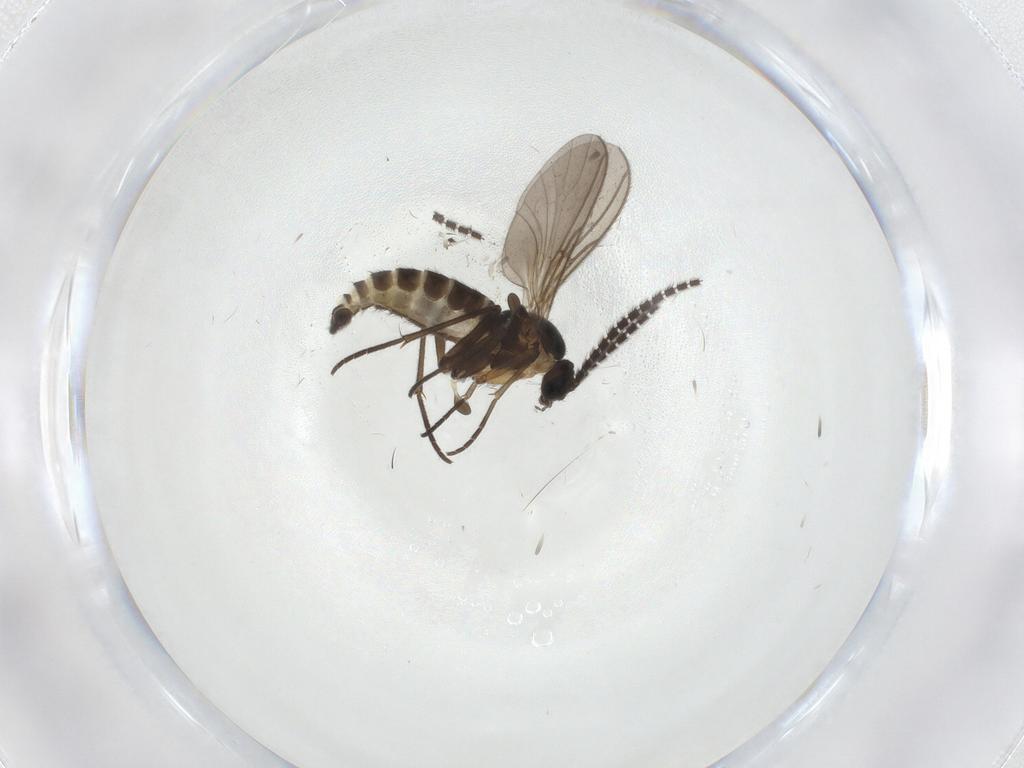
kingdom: Animalia
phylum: Arthropoda
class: Insecta
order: Diptera
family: Sciaridae
